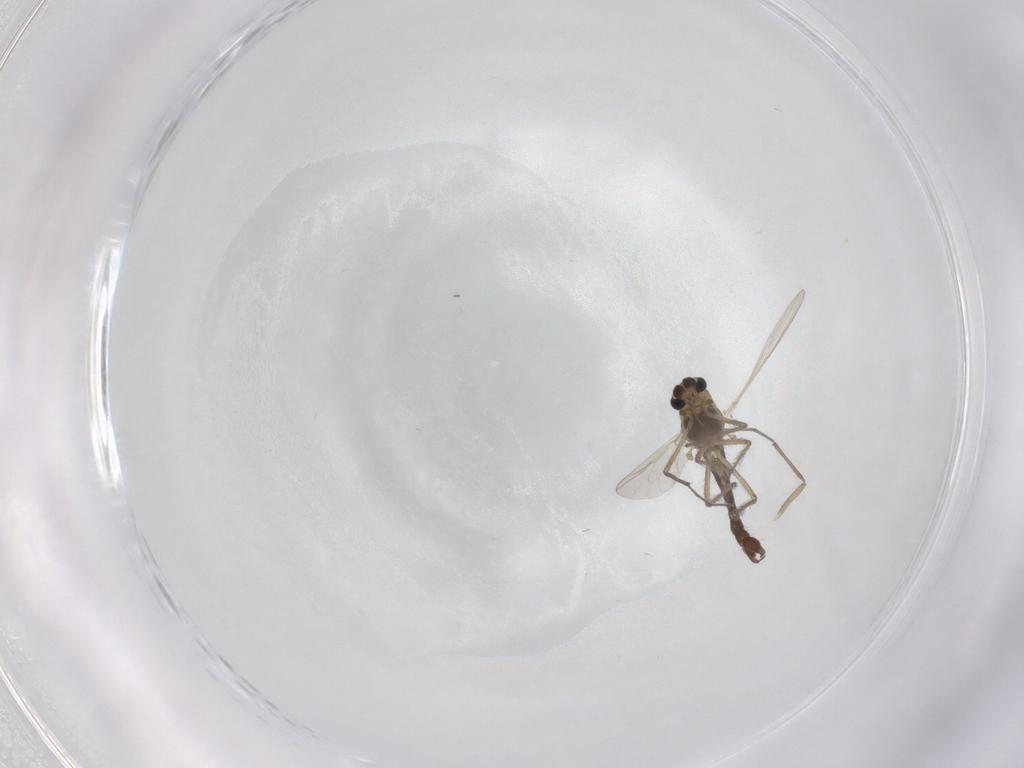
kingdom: Animalia
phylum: Arthropoda
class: Insecta
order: Diptera
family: Chironomidae
